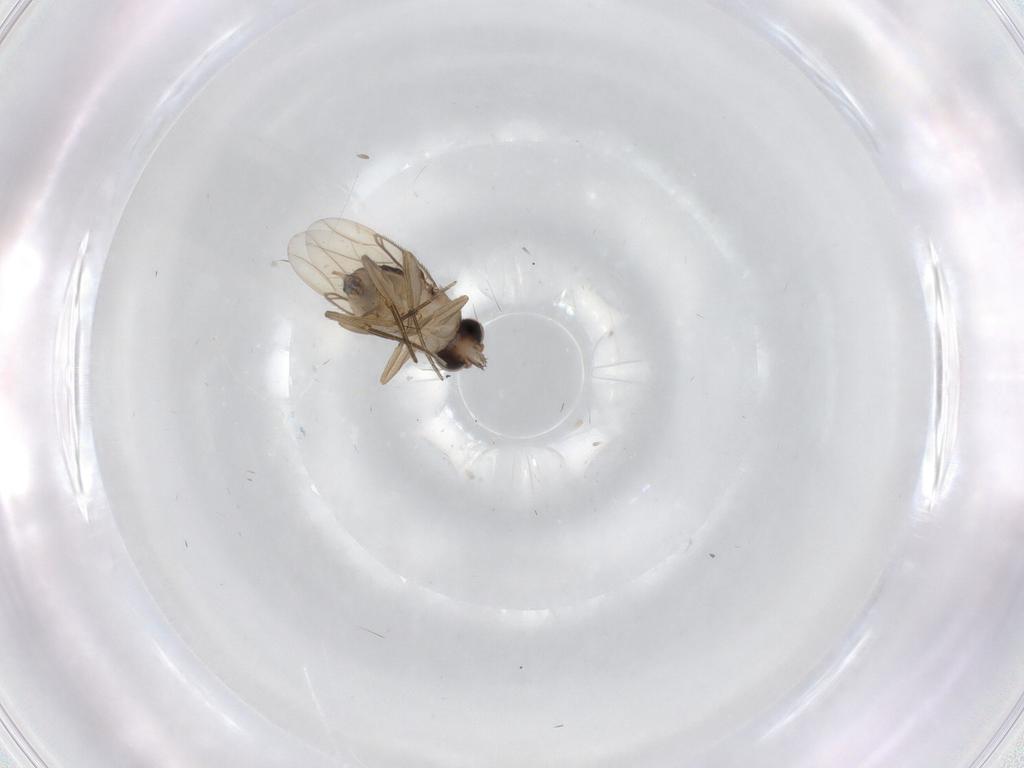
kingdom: Animalia
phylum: Arthropoda
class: Insecta
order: Diptera
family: Phoridae
